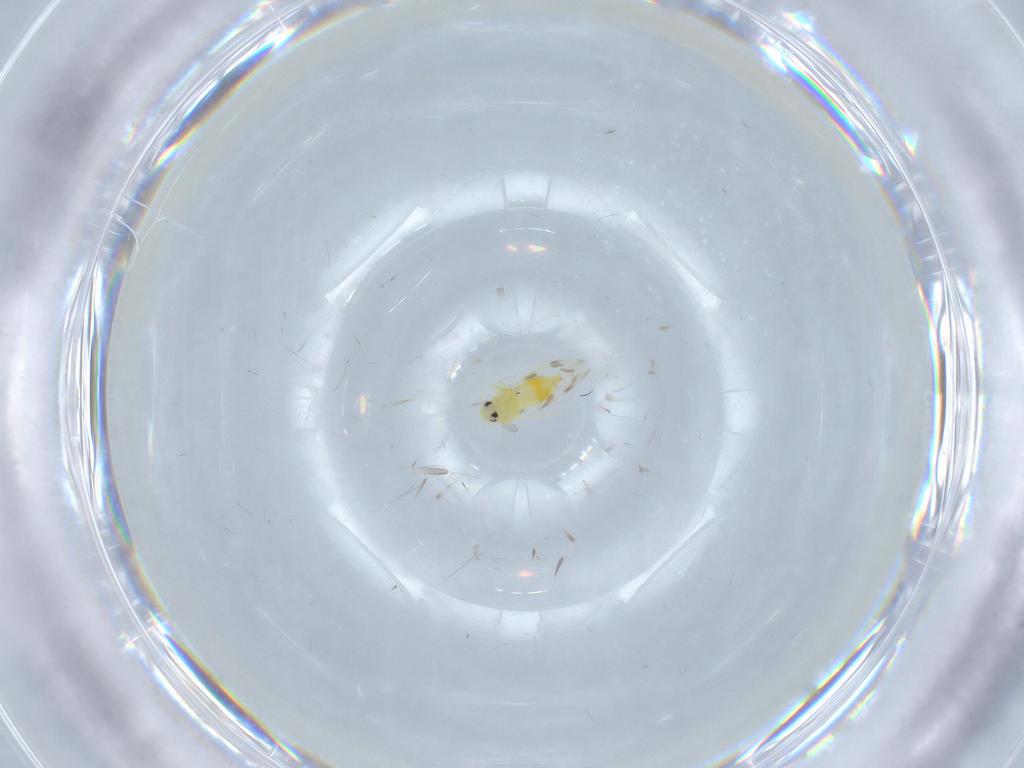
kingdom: Animalia
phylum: Arthropoda
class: Insecta
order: Hemiptera
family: Aleyrodidae
